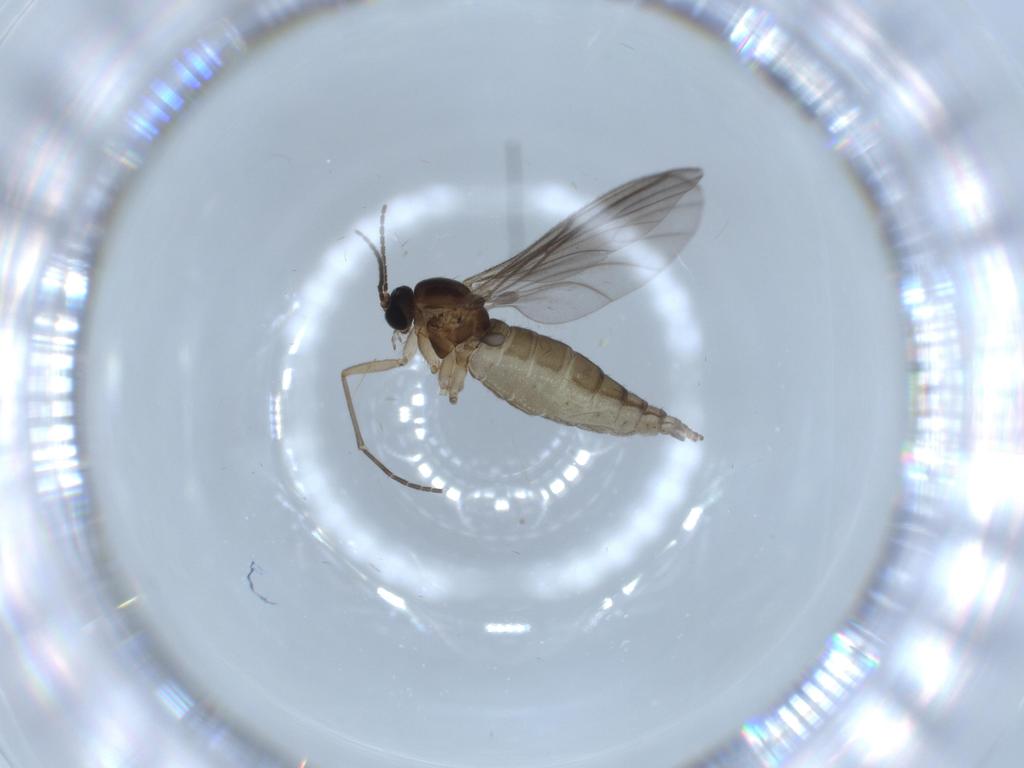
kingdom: Animalia
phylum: Arthropoda
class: Insecta
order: Diptera
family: Sciaridae
